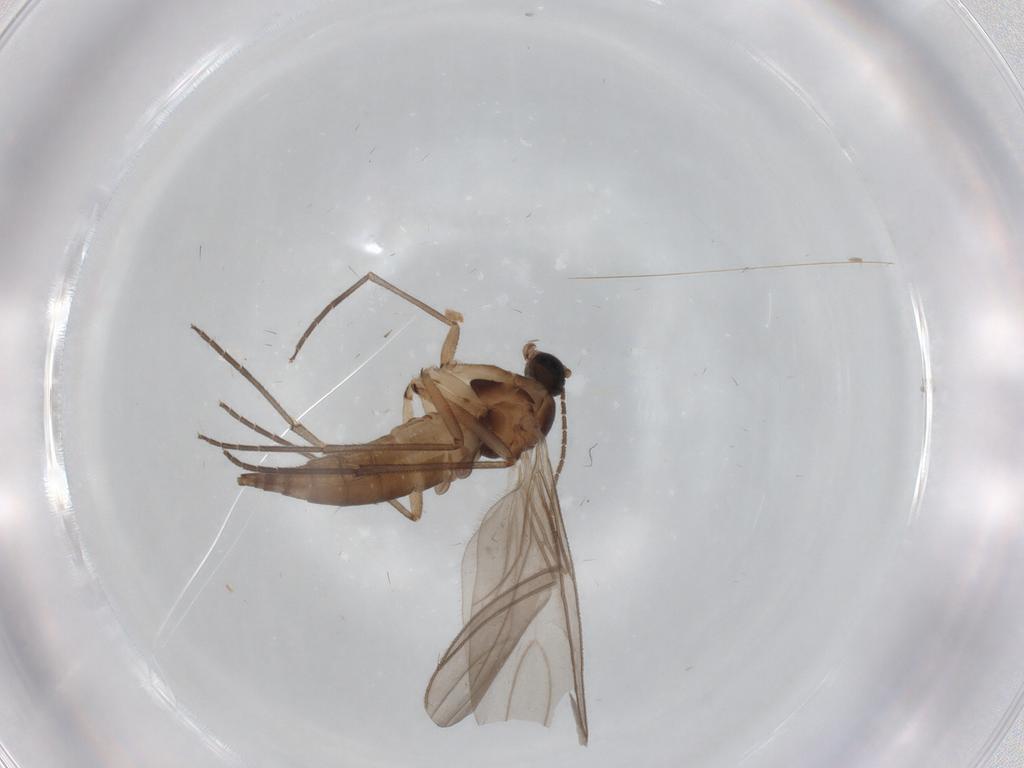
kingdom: Animalia
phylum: Arthropoda
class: Insecta
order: Diptera
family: Sciaridae
